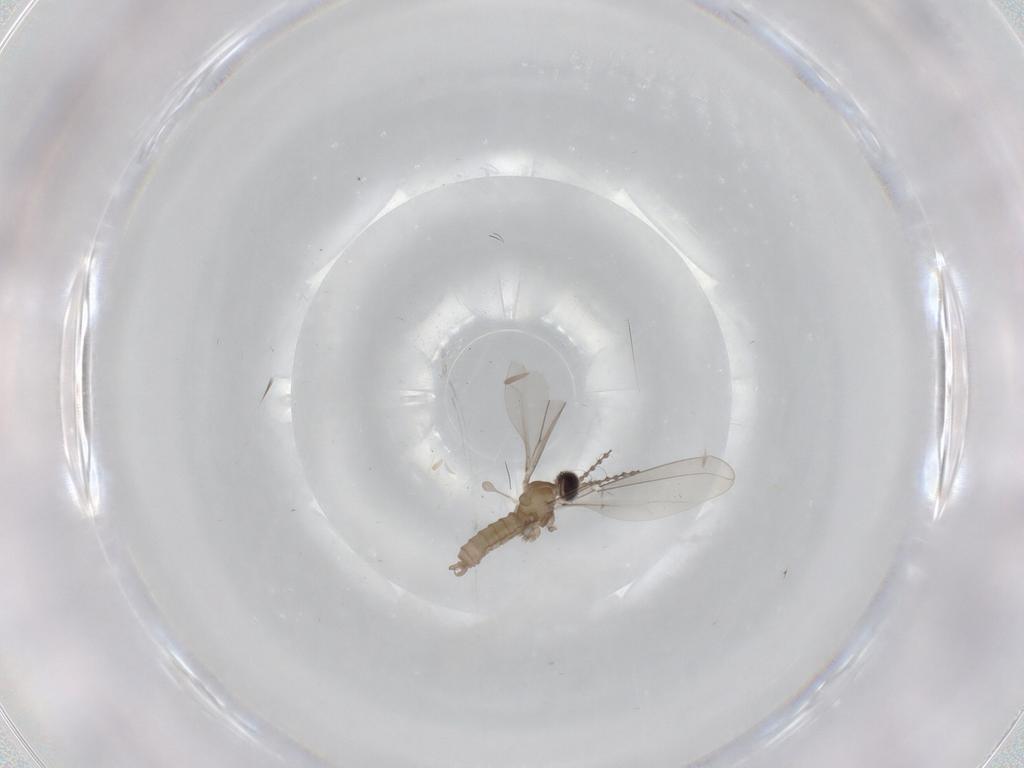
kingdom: Animalia
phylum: Arthropoda
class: Insecta
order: Diptera
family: Cecidomyiidae
